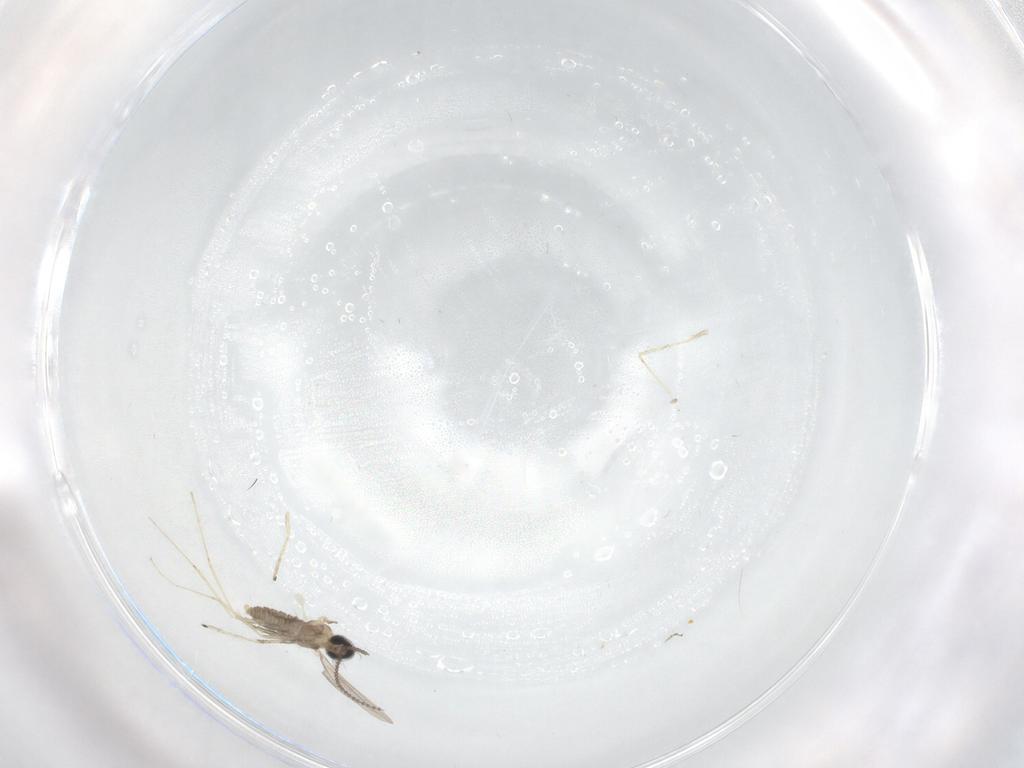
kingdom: Animalia
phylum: Arthropoda
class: Insecta
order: Diptera
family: Cecidomyiidae
